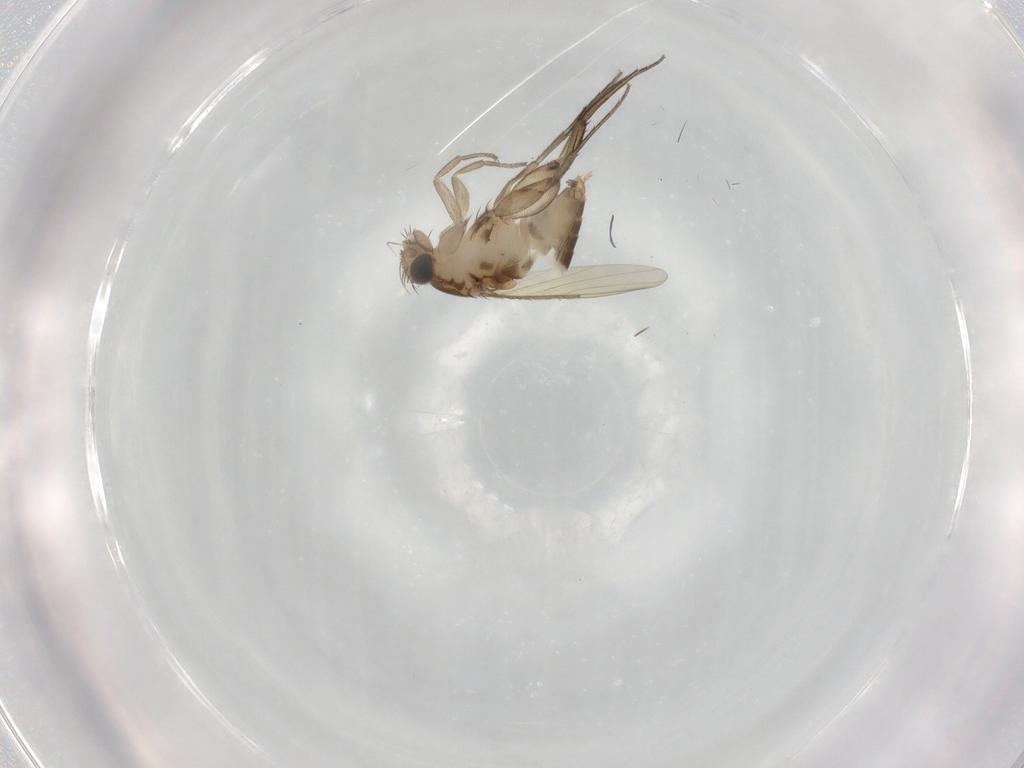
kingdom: Animalia
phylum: Arthropoda
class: Insecta
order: Diptera
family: Phoridae
